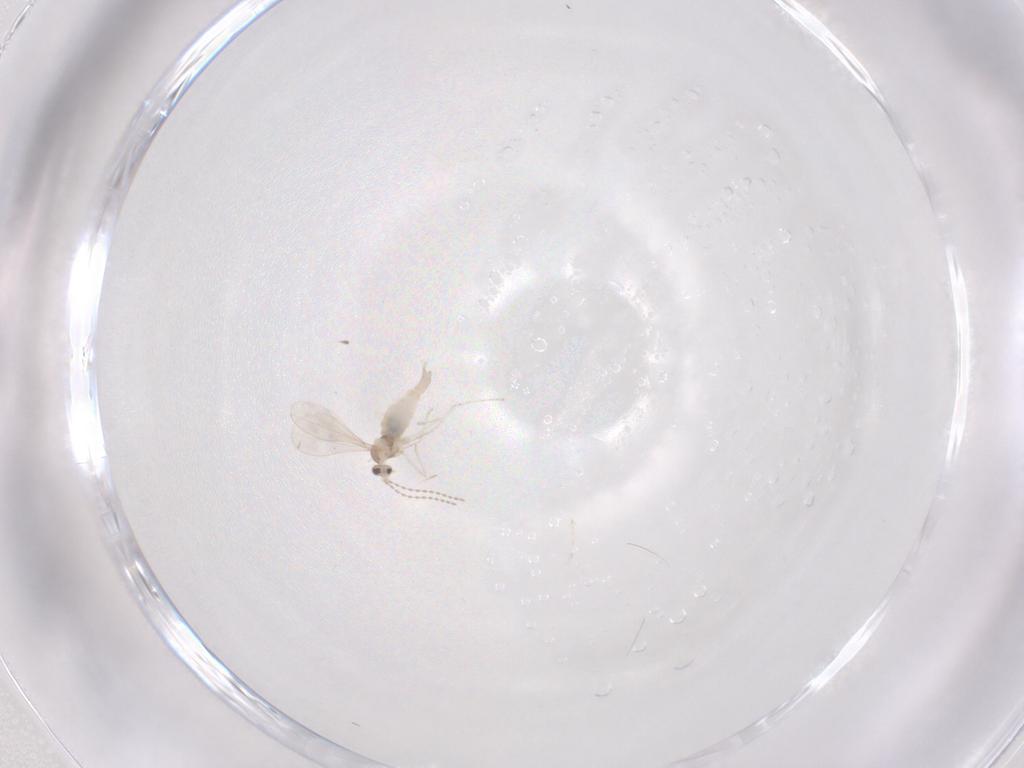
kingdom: Animalia
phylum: Arthropoda
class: Insecta
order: Diptera
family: Cecidomyiidae
